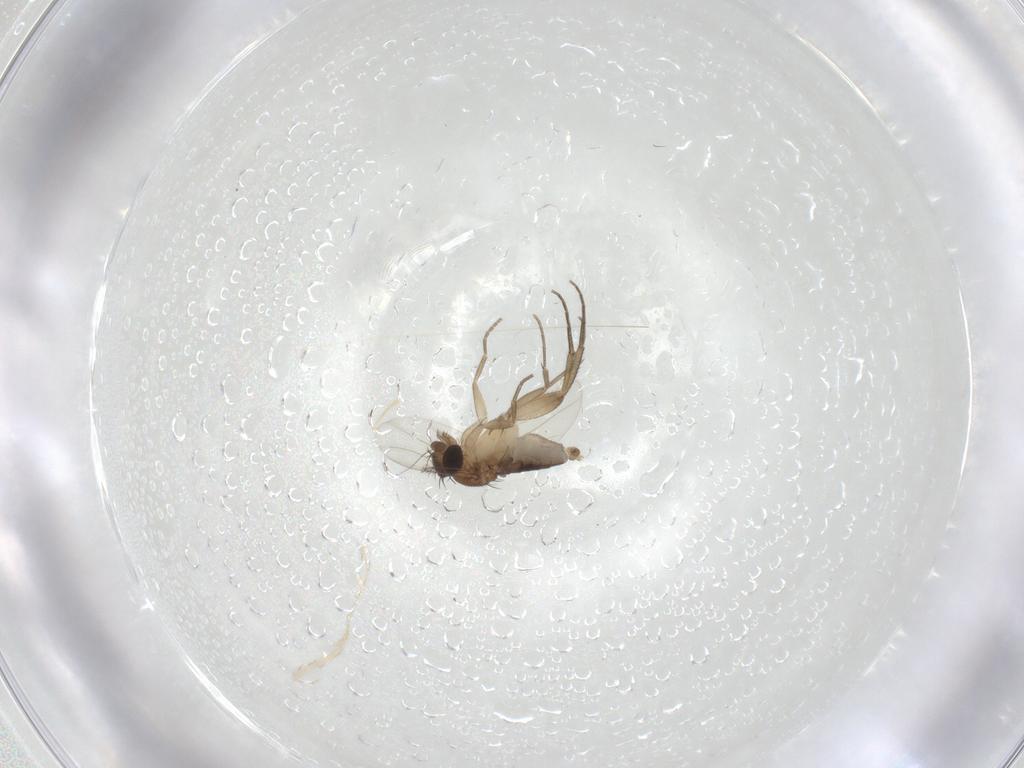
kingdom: Animalia
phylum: Arthropoda
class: Insecta
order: Diptera
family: Phoridae
